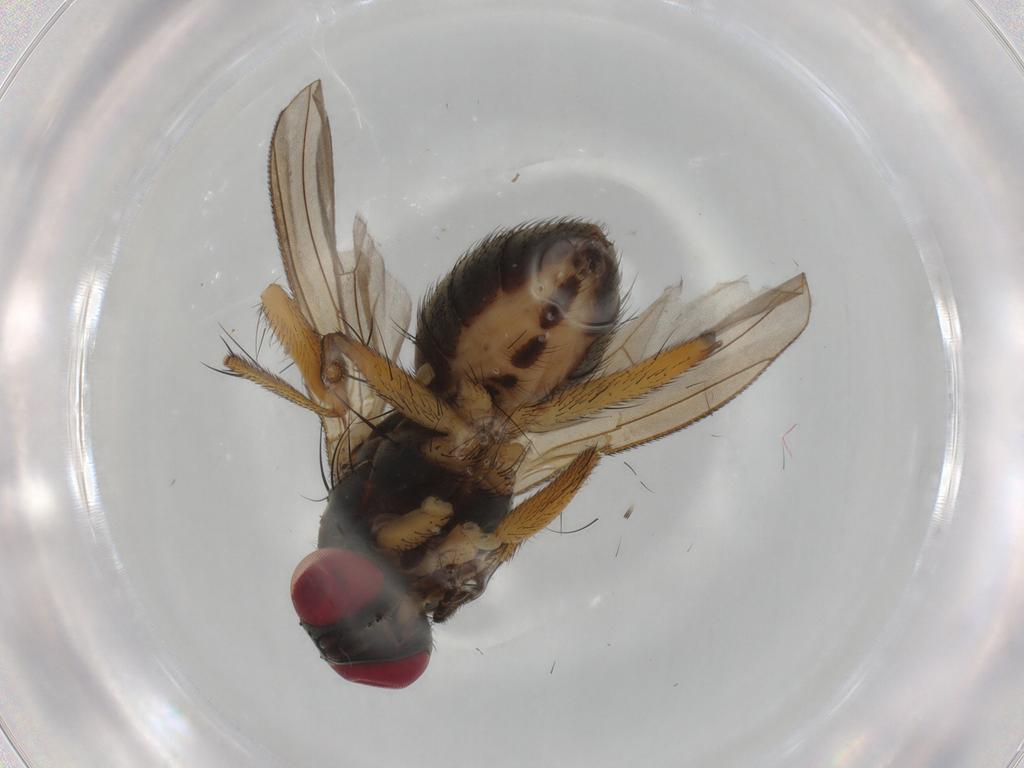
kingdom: Animalia
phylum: Arthropoda
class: Insecta
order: Diptera
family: Muscidae
